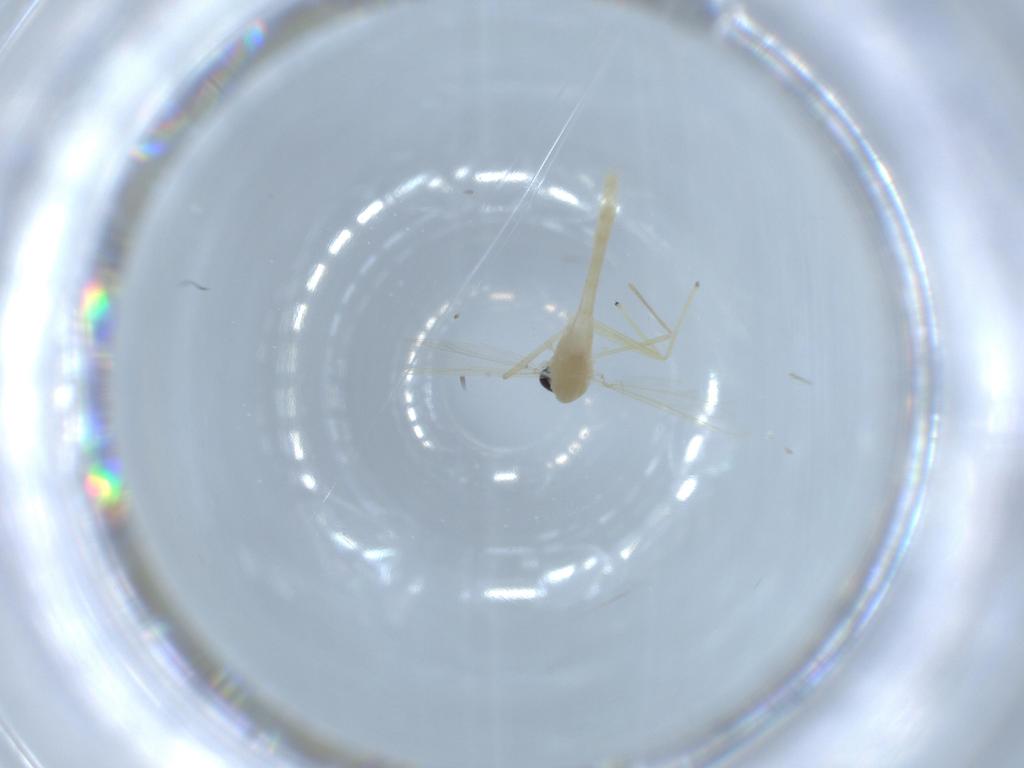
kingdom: Animalia
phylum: Arthropoda
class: Insecta
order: Diptera
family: Chironomidae
